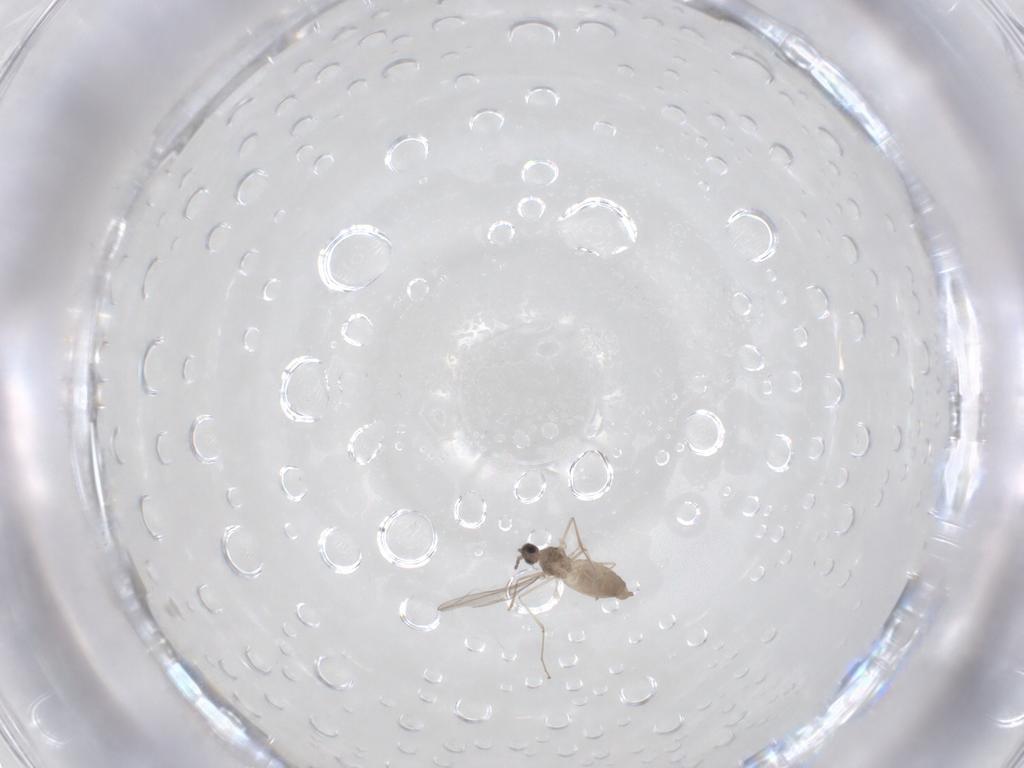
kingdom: Animalia
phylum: Arthropoda
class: Insecta
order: Diptera
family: Cecidomyiidae
